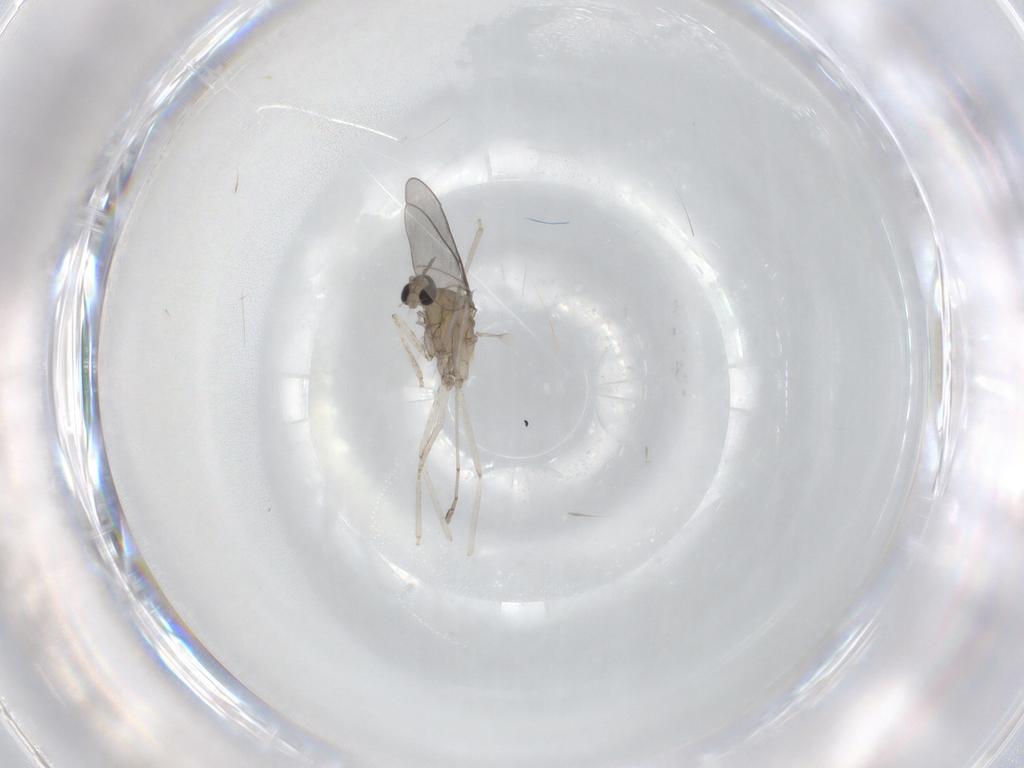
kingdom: Animalia
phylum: Arthropoda
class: Insecta
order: Diptera
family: Cecidomyiidae
